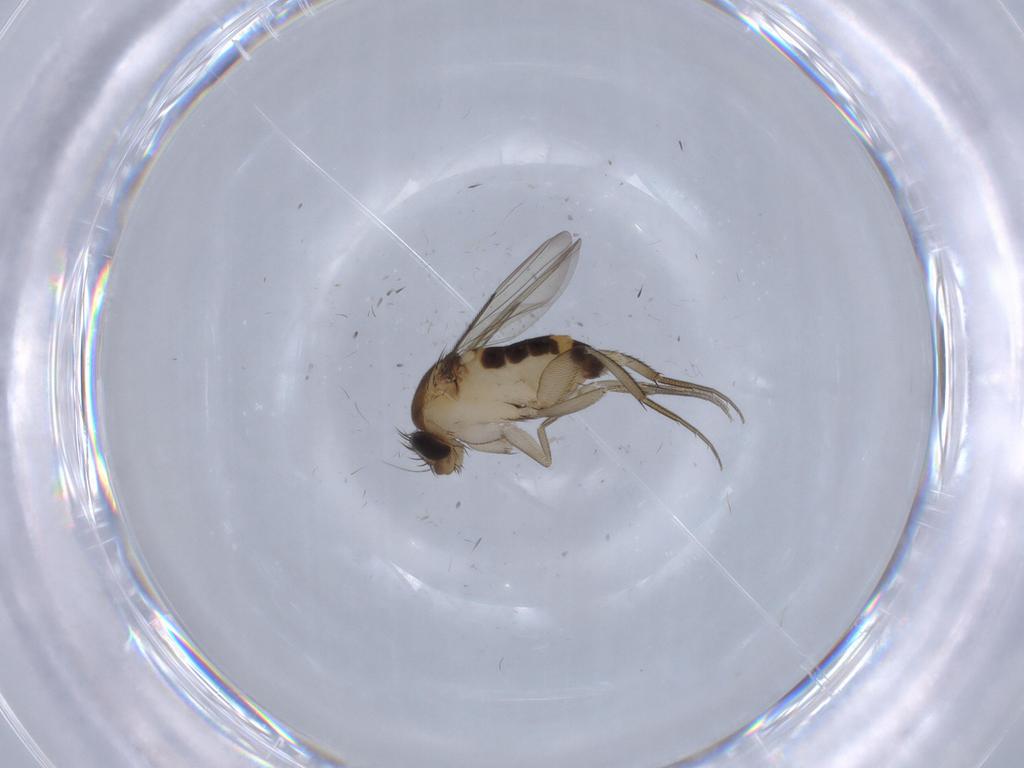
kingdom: Animalia
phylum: Arthropoda
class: Insecta
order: Diptera
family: Phoridae
